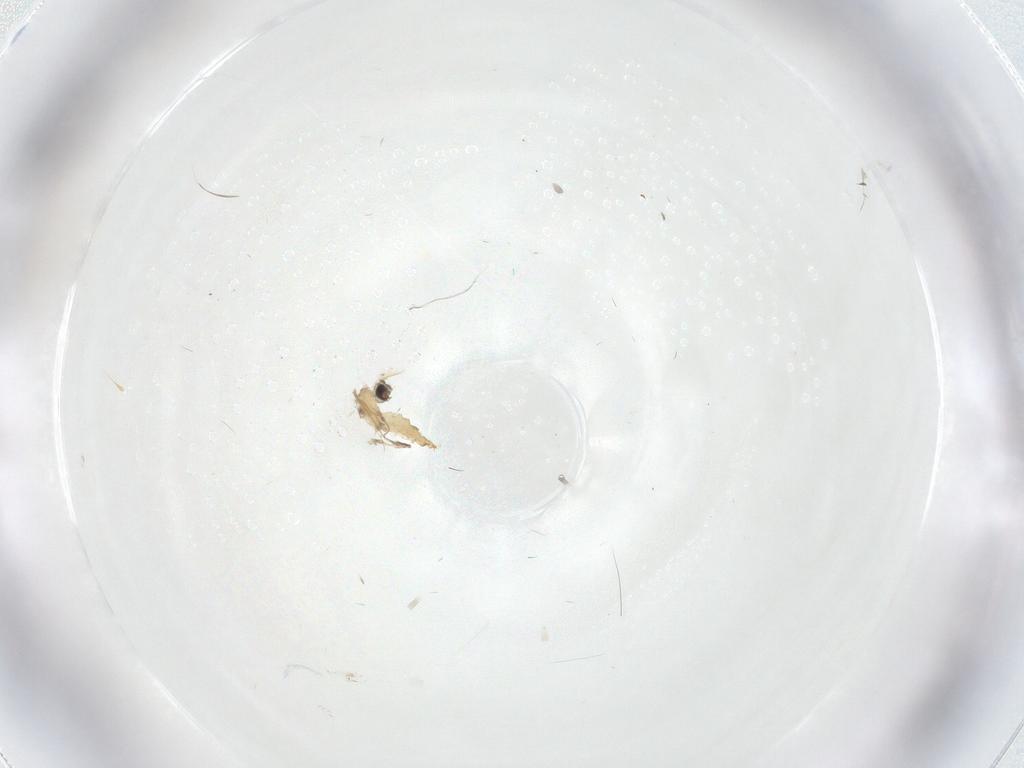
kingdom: Animalia
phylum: Arthropoda
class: Insecta
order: Diptera
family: Cecidomyiidae
